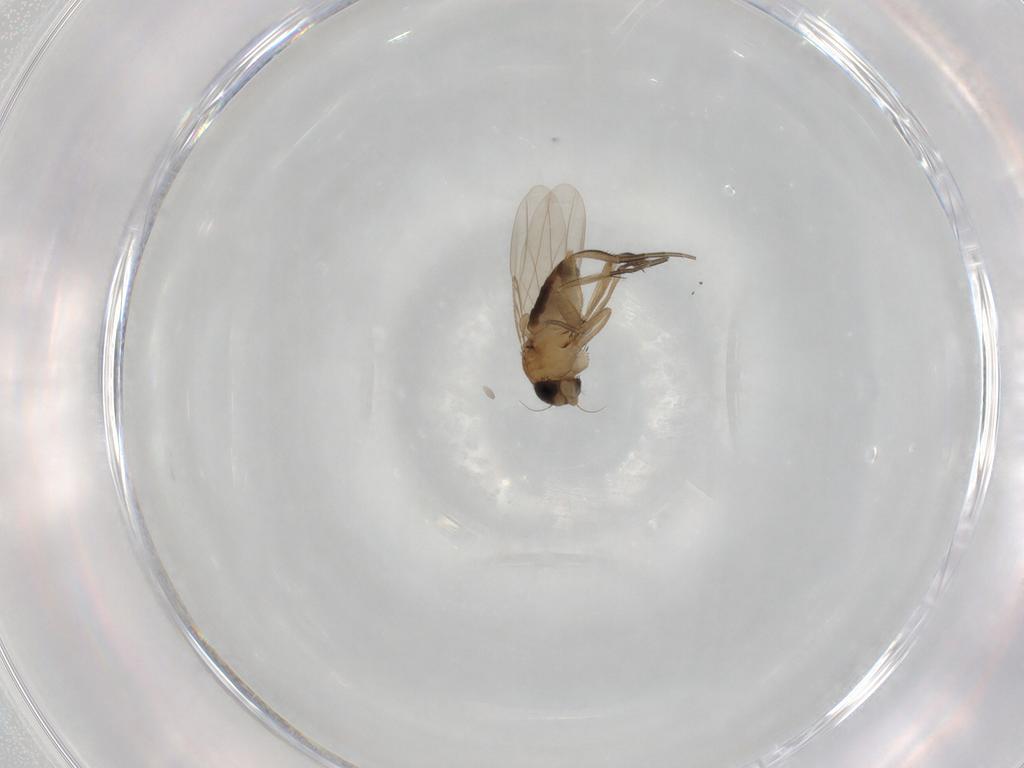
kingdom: Animalia
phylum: Arthropoda
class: Insecta
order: Diptera
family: Phoridae
